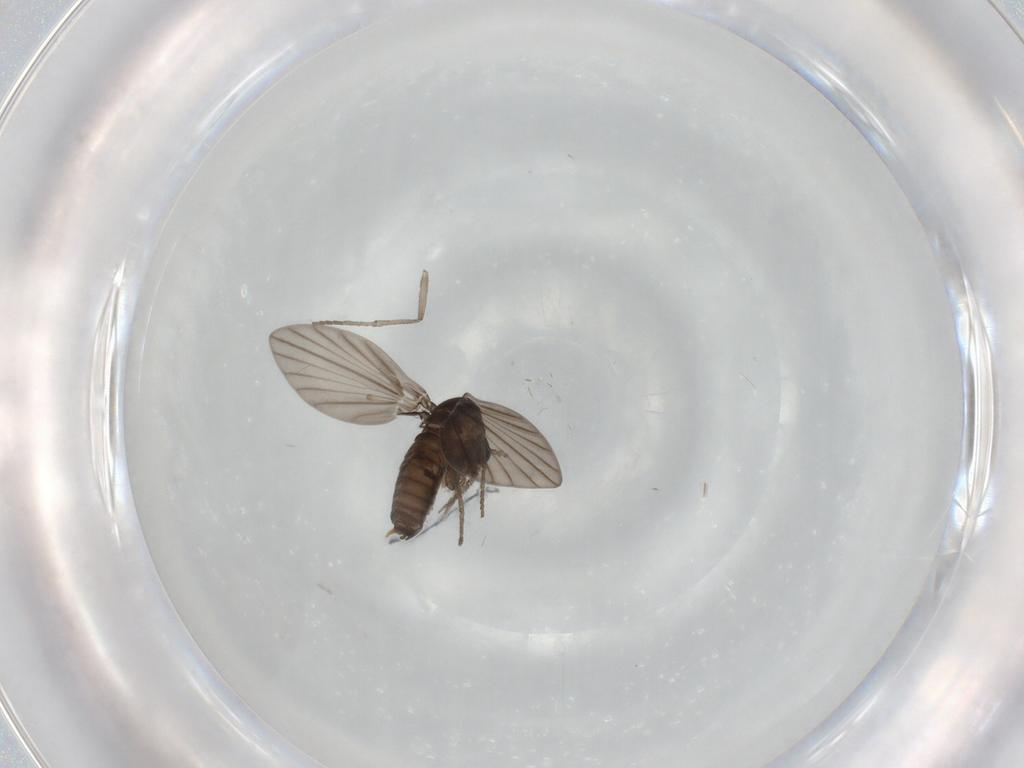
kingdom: Animalia
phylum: Arthropoda
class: Insecta
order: Diptera
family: Psychodidae
